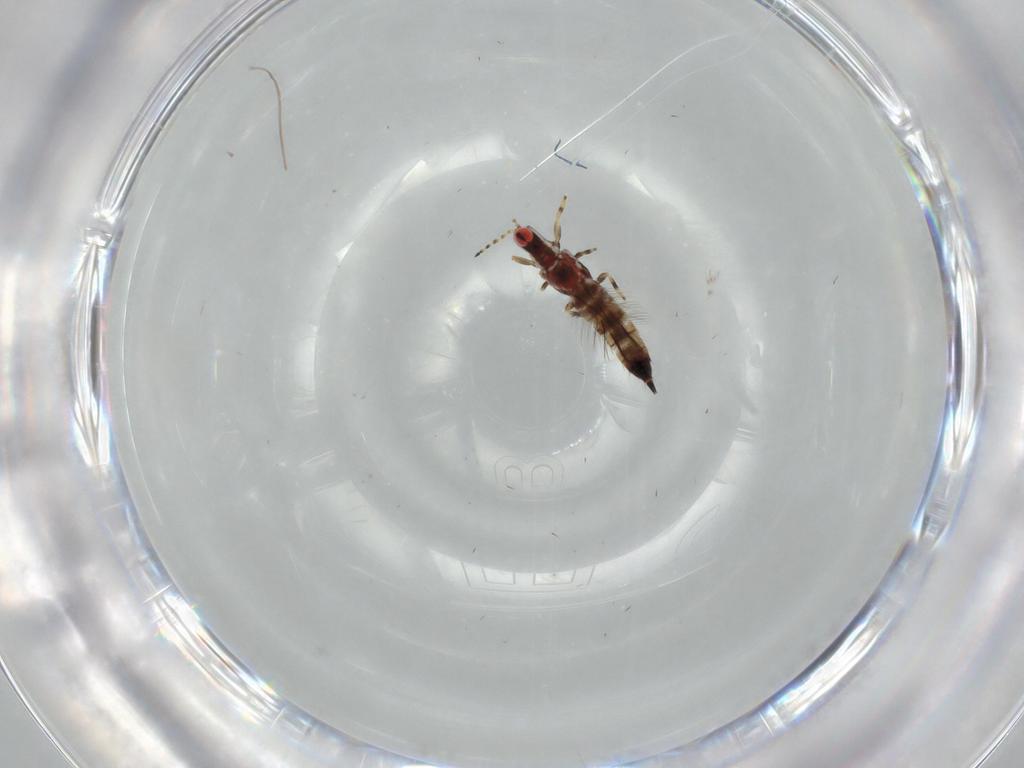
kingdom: Animalia
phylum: Arthropoda
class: Insecta
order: Thysanoptera
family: Phlaeothripidae
